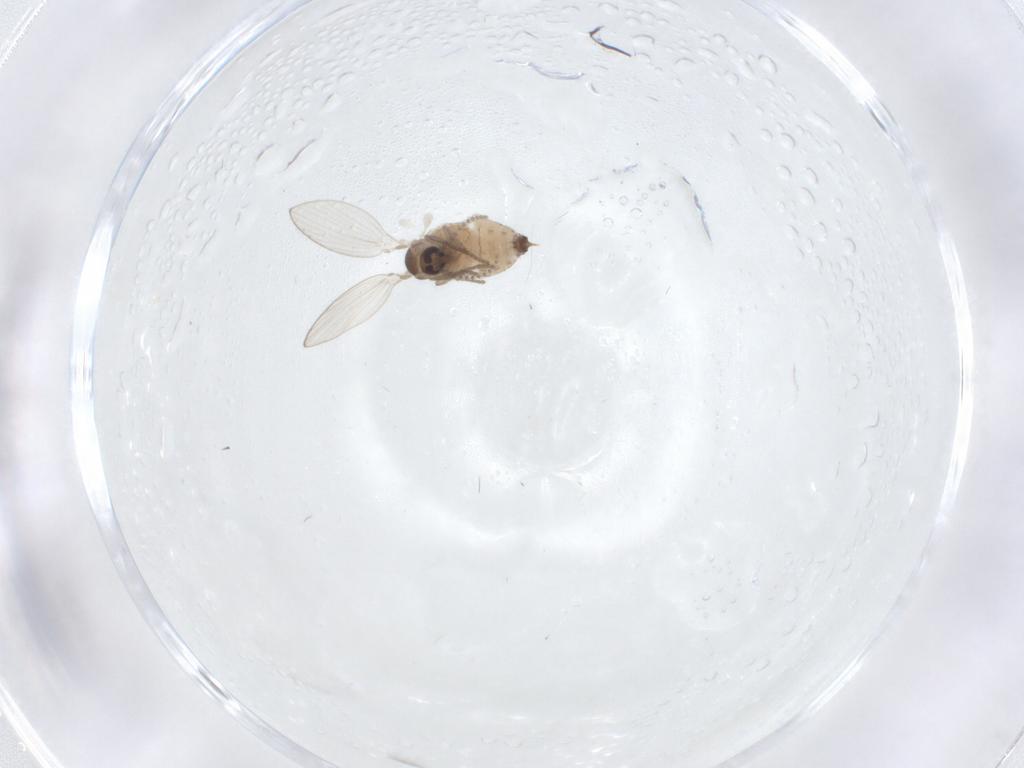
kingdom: Animalia
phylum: Arthropoda
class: Insecta
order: Diptera
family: Psychodidae
